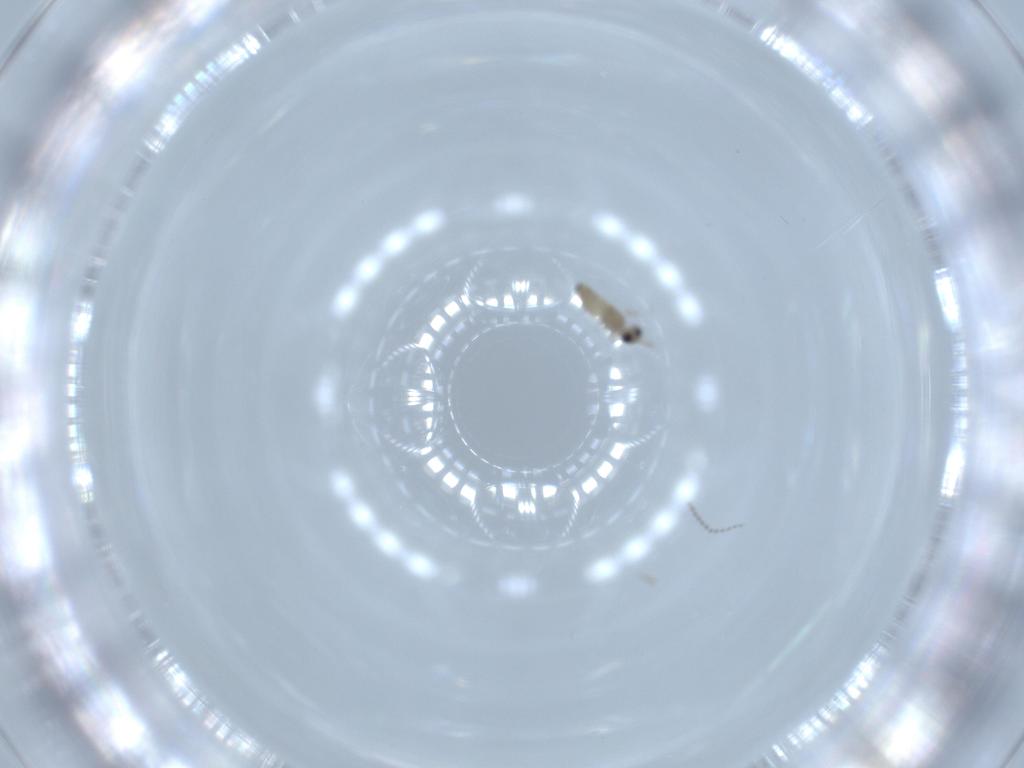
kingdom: Animalia
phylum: Arthropoda
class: Insecta
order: Diptera
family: Cecidomyiidae
